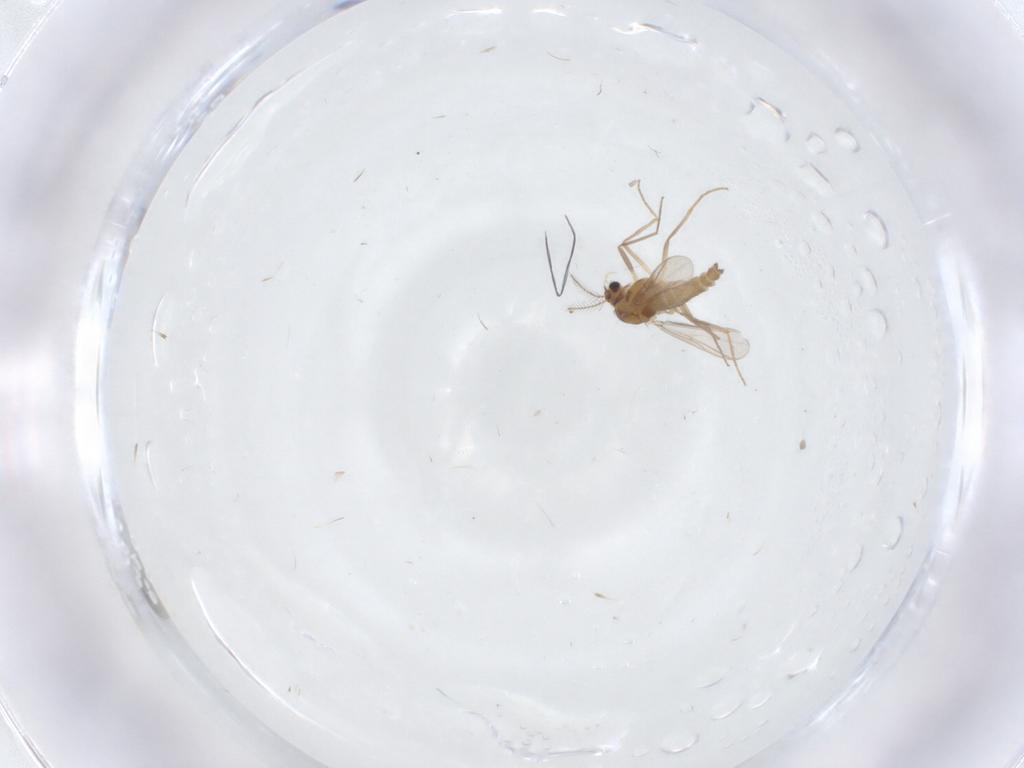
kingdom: Animalia
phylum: Arthropoda
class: Insecta
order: Diptera
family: Chironomidae
